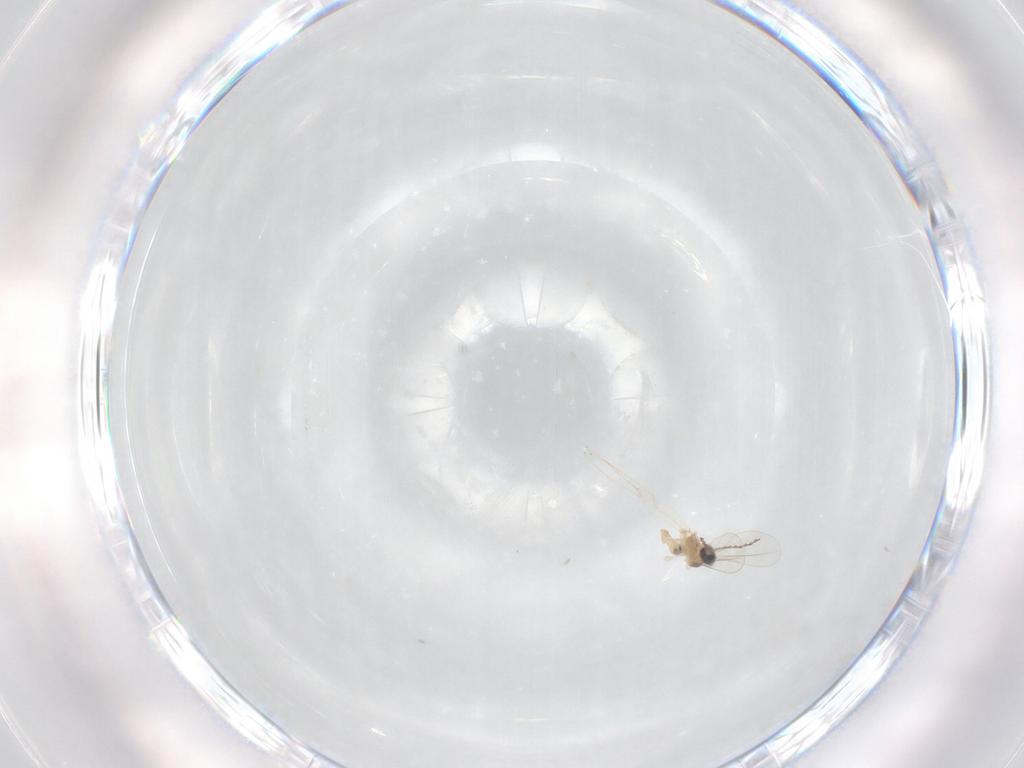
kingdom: Animalia
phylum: Arthropoda
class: Insecta
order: Diptera
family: Cecidomyiidae
